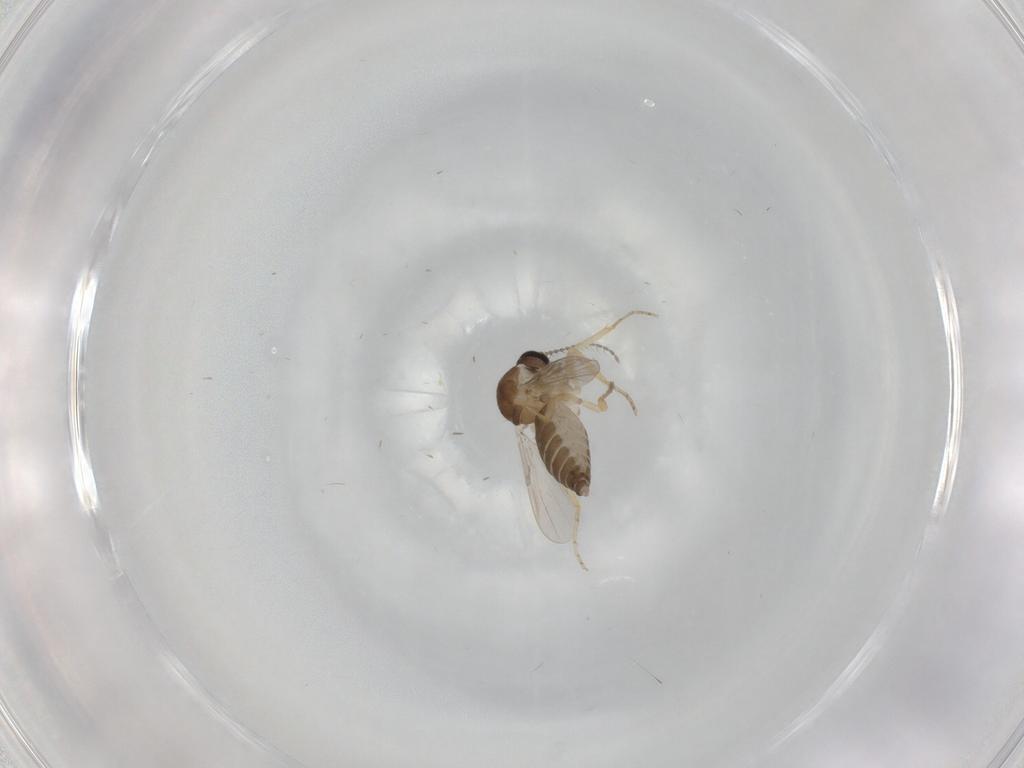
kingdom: Animalia
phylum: Arthropoda
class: Insecta
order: Diptera
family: Ceratopogonidae
